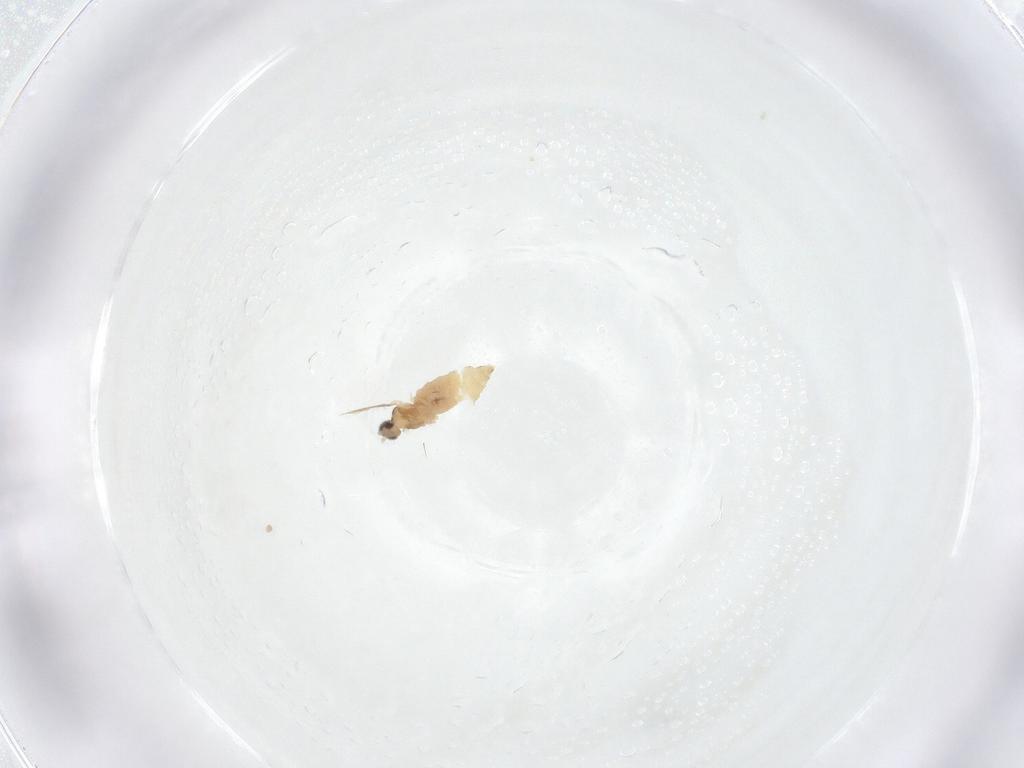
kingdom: Animalia
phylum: Arthropoda
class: Insecta
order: Diptera
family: Cecidomyiidae
